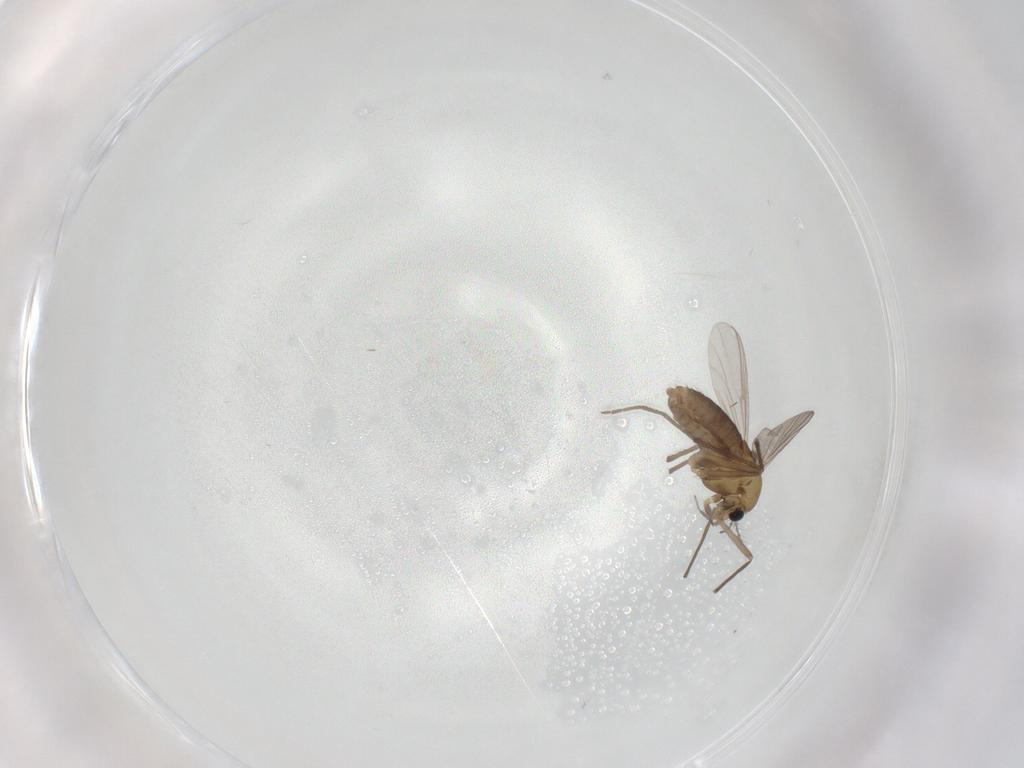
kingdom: Animalia
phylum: Arthropoda
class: Insecta
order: Diptera
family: Chironomidae
